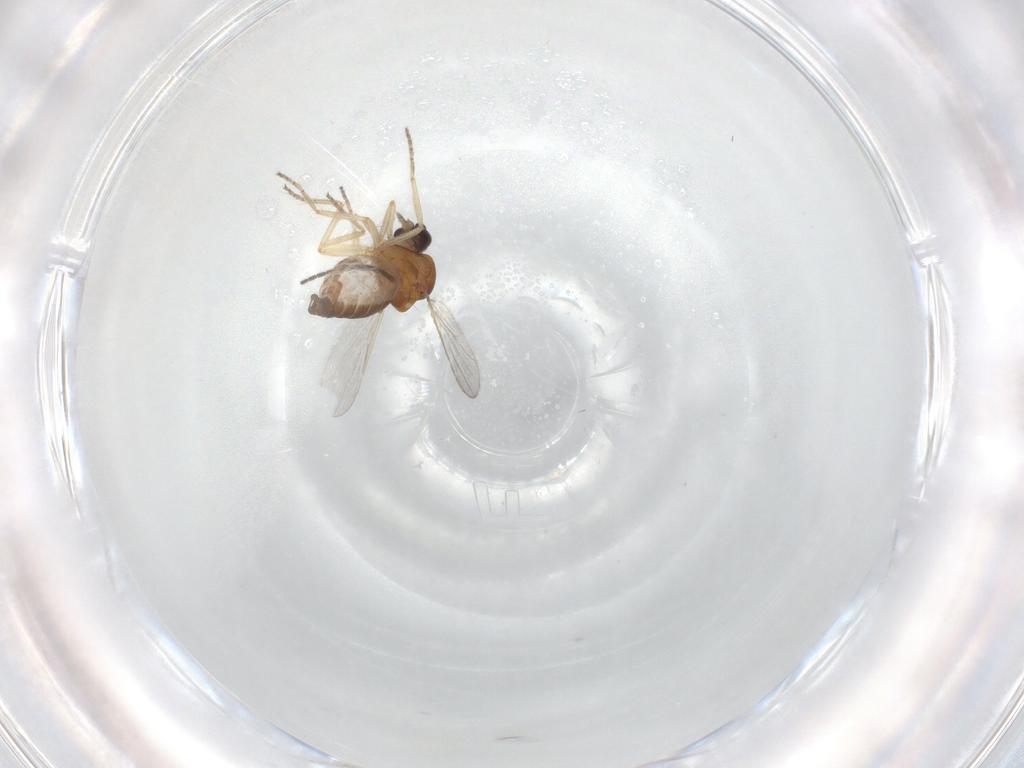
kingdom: Animalia
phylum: Arthropoda
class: Insecta
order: Diptera
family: Ceratopogonidae
